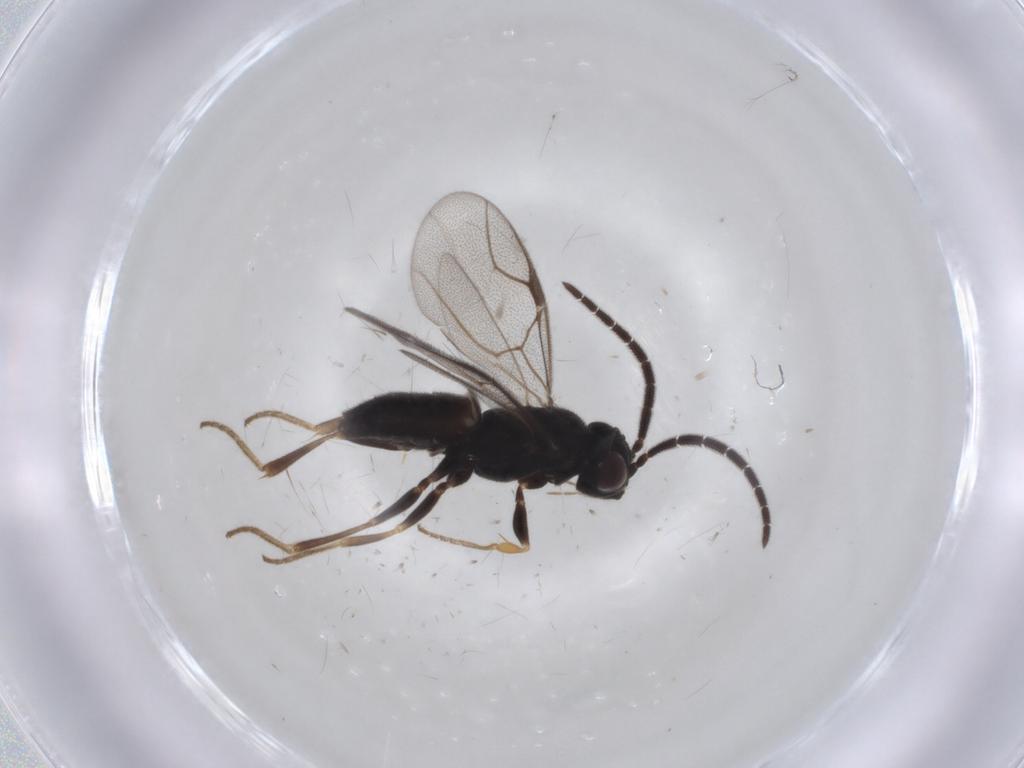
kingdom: Animalia
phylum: Arthropoda
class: Insecta
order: Hymenoptera
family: Dryinidae
